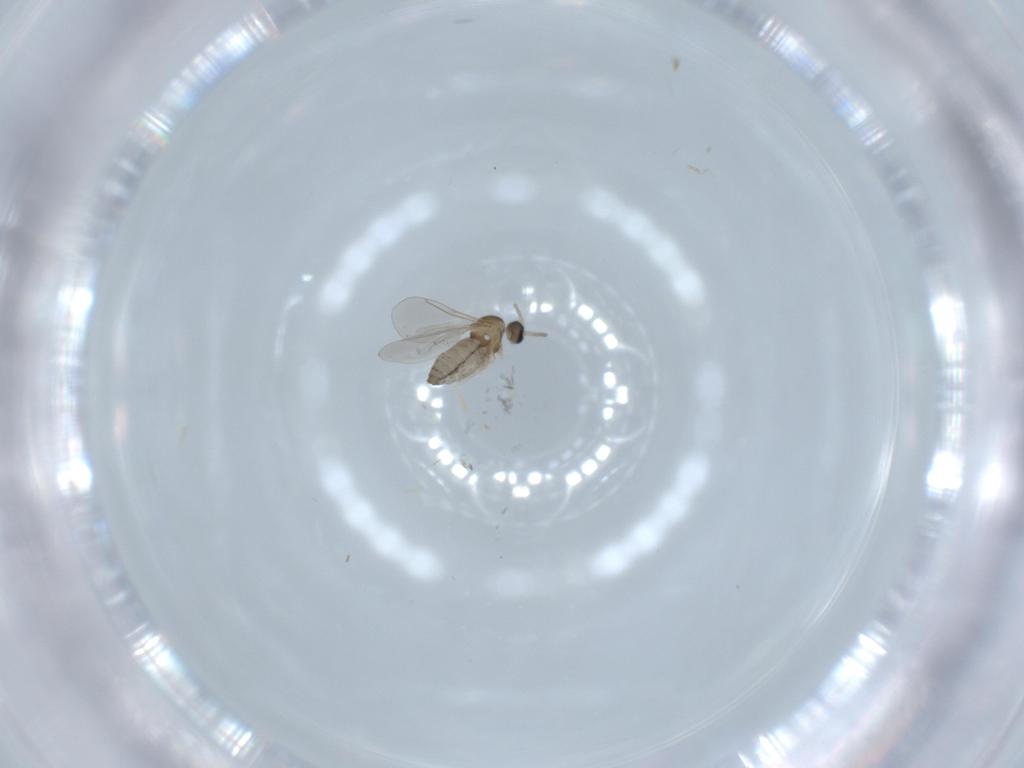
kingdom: Animalia
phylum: Arthropoda
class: Insecta
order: Diptera
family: Cecidomyiidae
